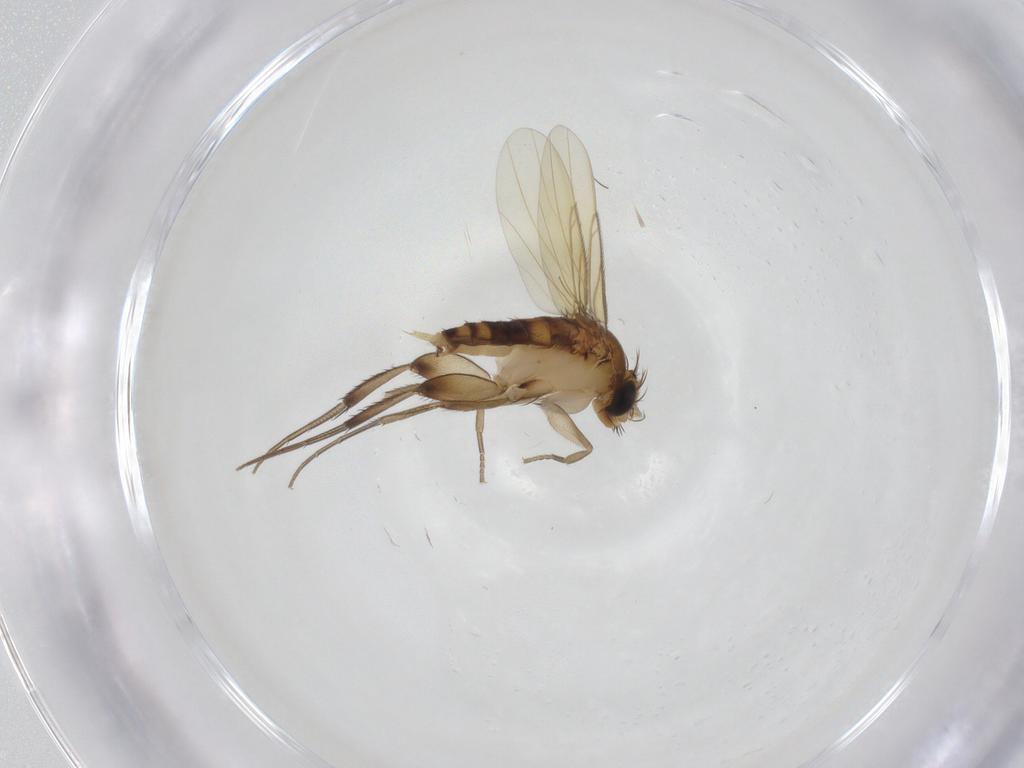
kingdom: Animalia
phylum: Arthropoda
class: Insecta
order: Diptera
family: Phoridae
